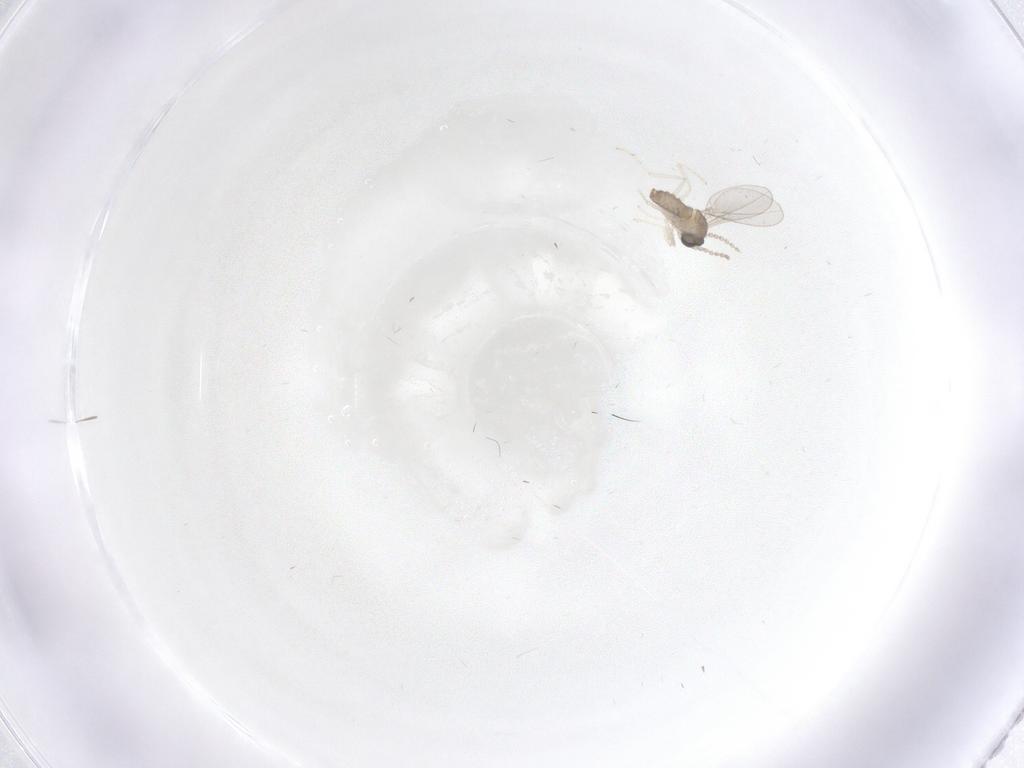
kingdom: Animalia
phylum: Arthropoda
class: Insecta
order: Diptera
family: Cecidomyiidae
